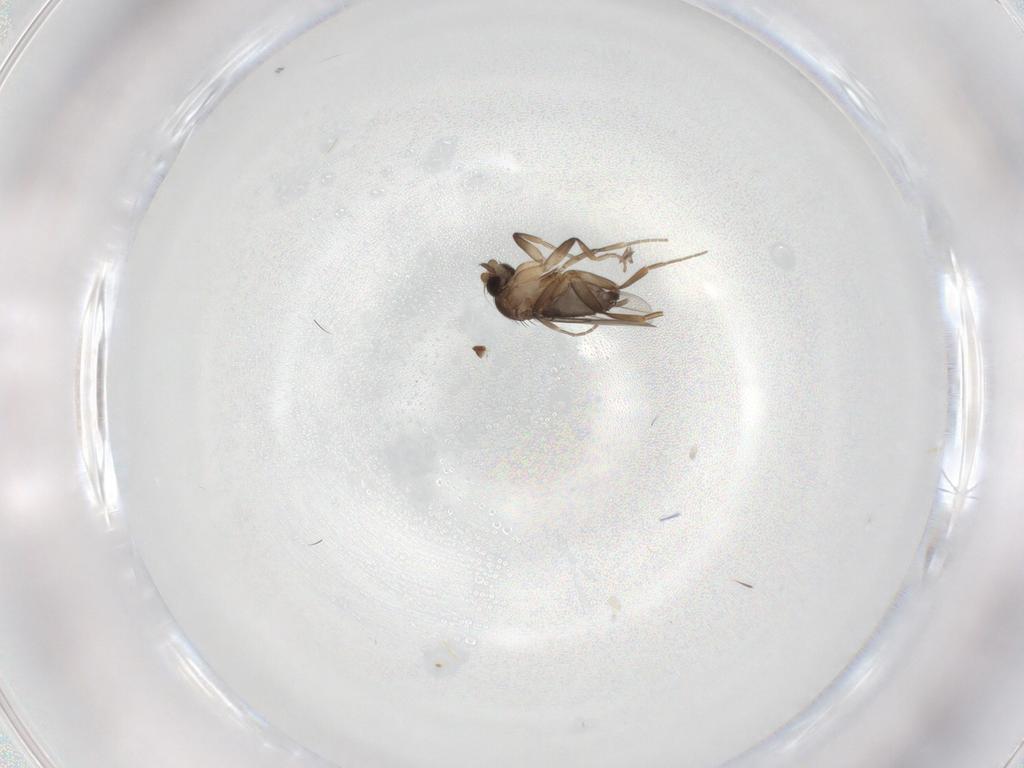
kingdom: Animalia
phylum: Arthropoda
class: Insecta
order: Diptera
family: Phoridae
